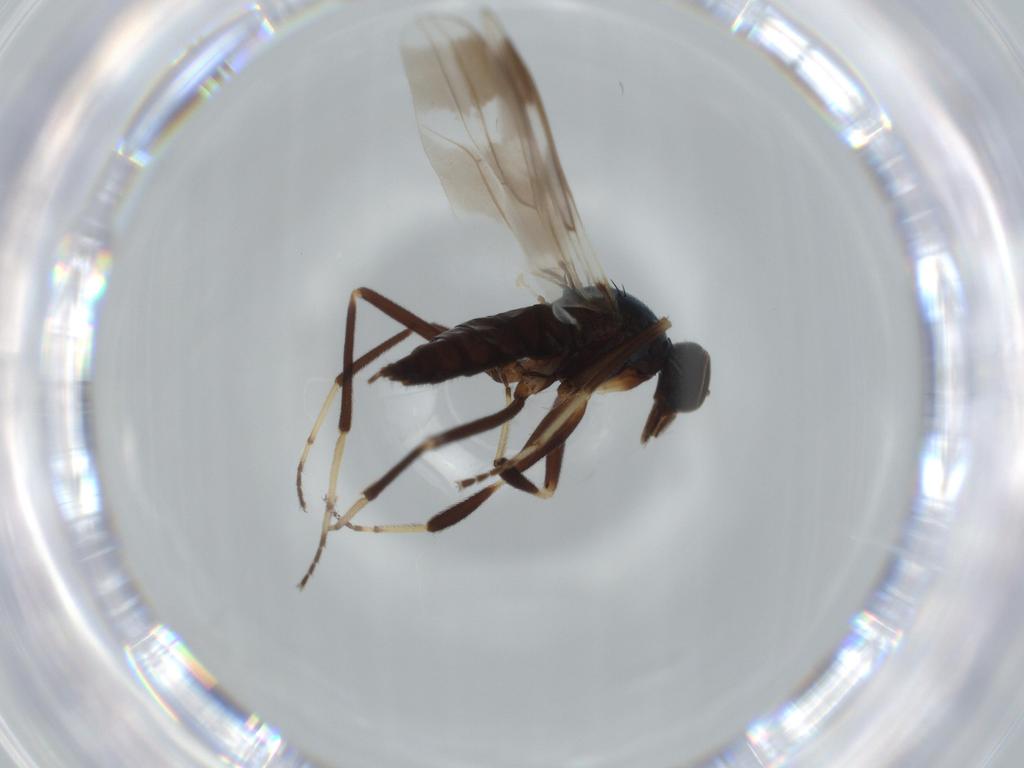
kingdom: Animalia
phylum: Arthropoda
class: Insecta
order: Diptera
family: Hybotidae
